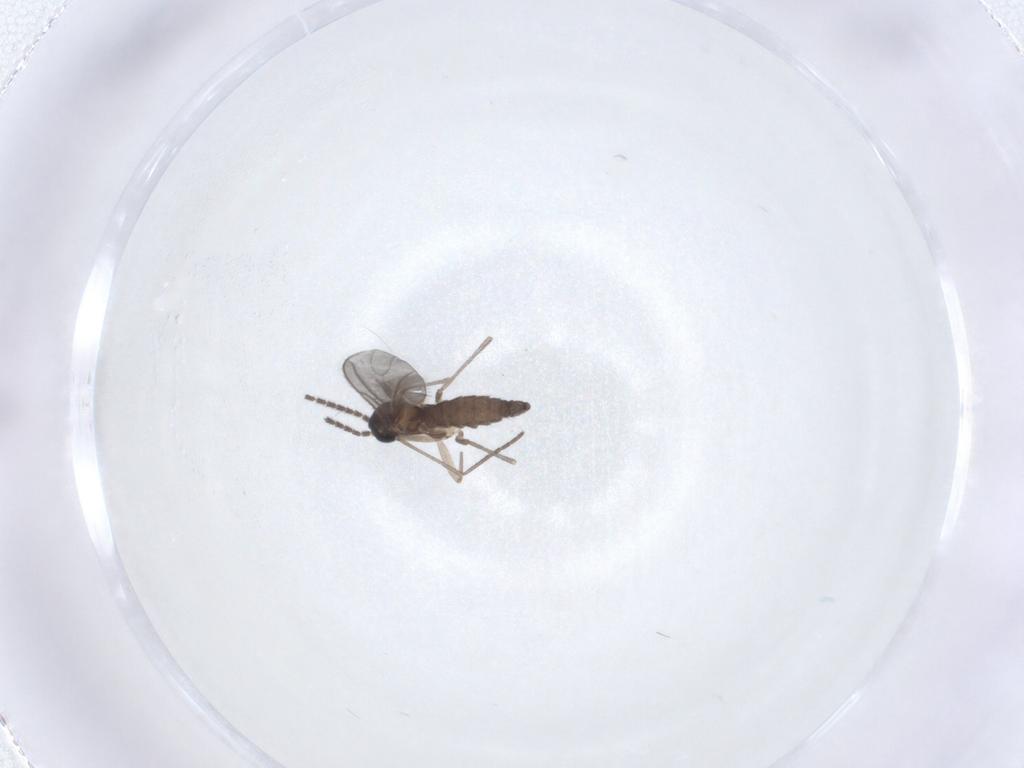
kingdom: Animalia
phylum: Arthropoda
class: Insecta
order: Diptera
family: Sciaridae
